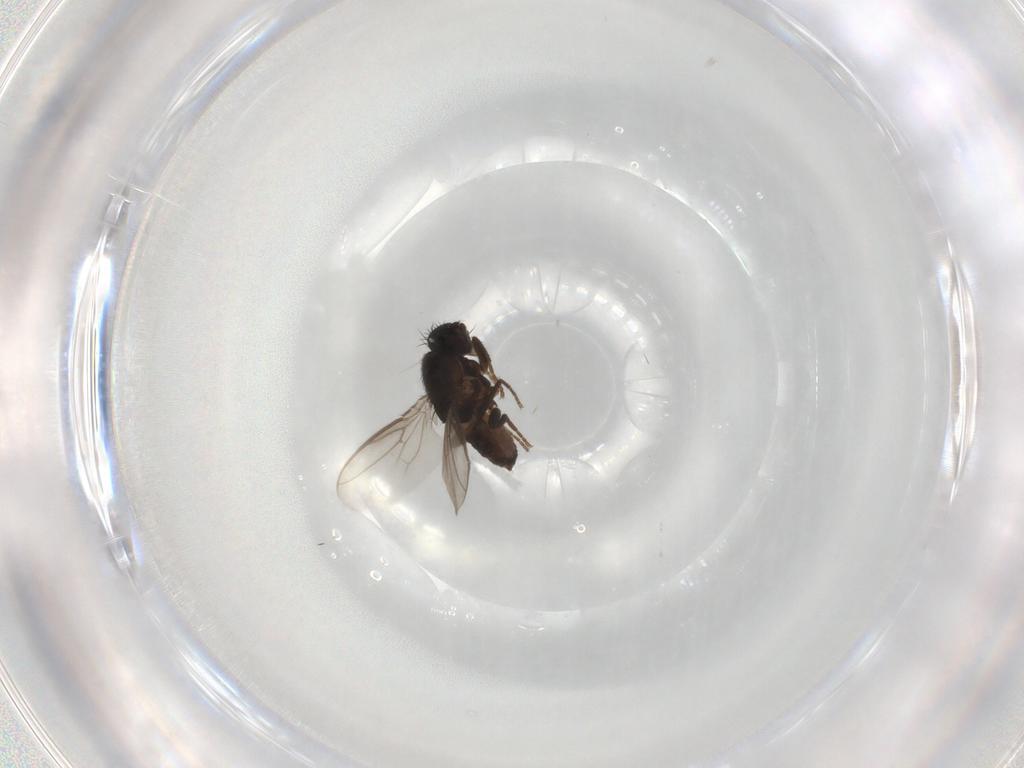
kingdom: Animalia
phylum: Arthropoda
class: Insecta
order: Diptera
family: Sphaeroceridae
